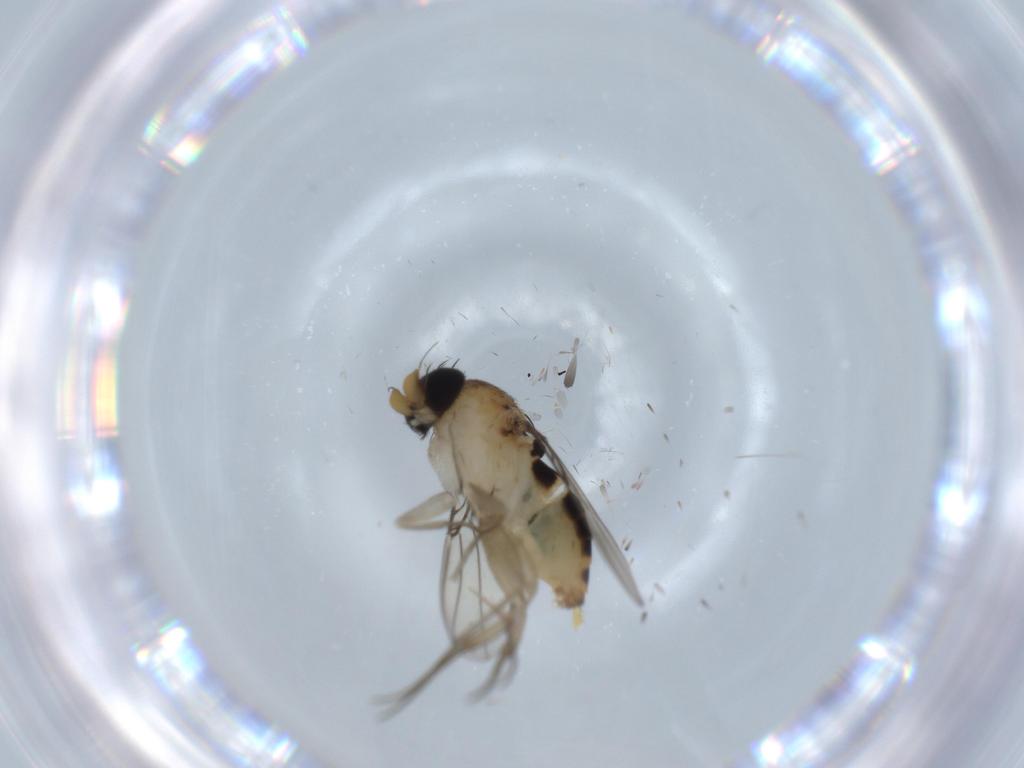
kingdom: Animalia
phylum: Arthropoda
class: Insecta
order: Diptera
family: Phoridae
